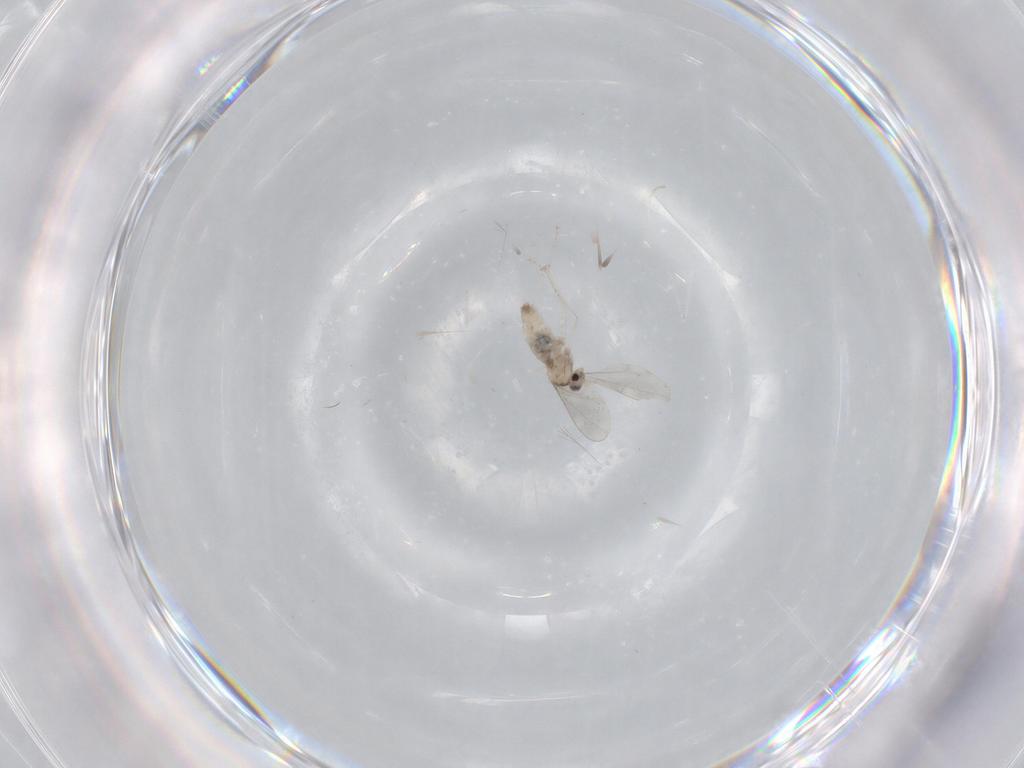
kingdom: Animalia
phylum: Arthropoda
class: Insecta
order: Diptera
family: Cecidomyiidae
